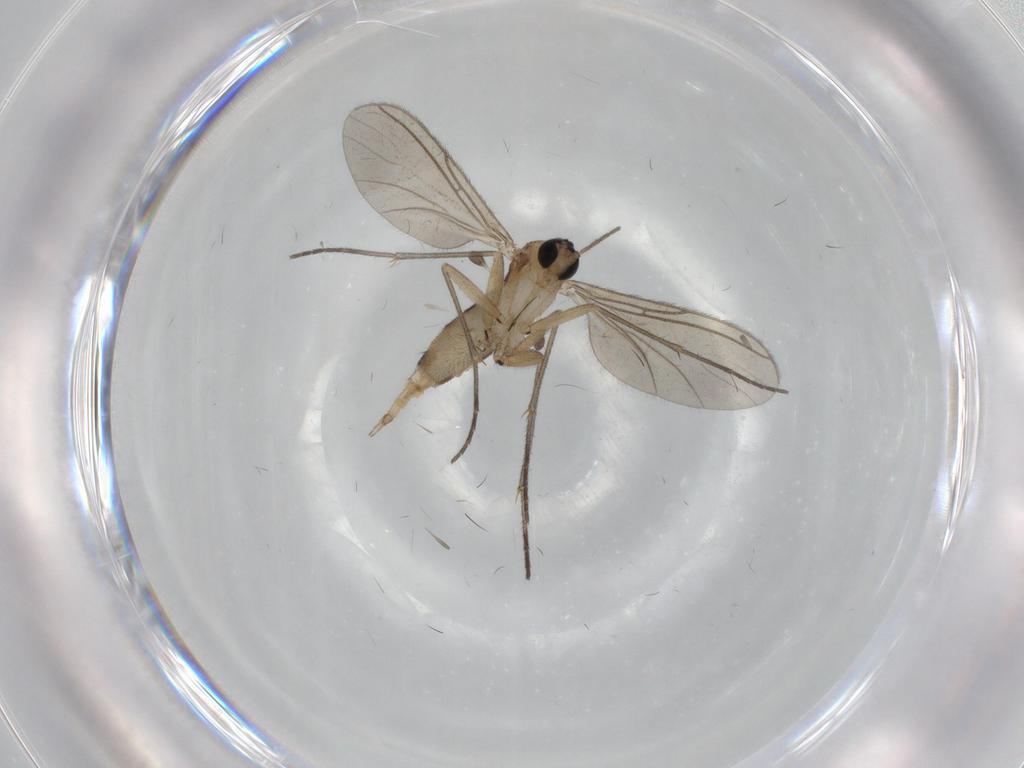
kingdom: Animalia
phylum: Arthropoda
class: Insecta
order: Diptera
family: Sciaridae
